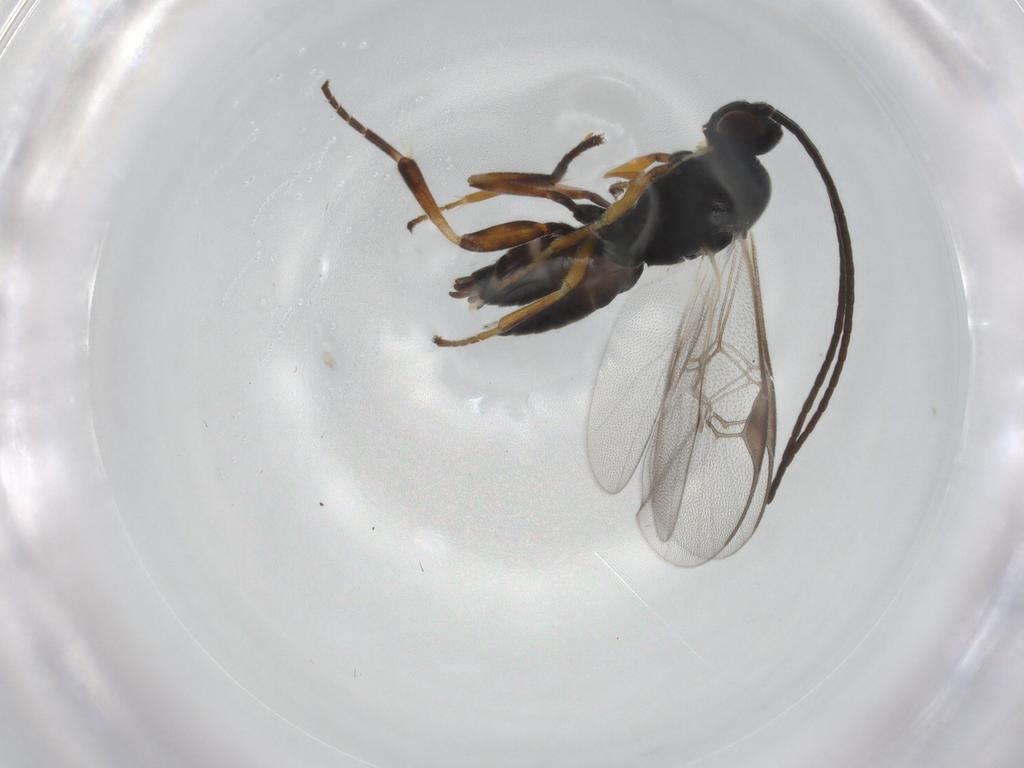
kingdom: Animalia
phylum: Arthropoda
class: Insecta
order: Hymenoptera
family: Braconidae
